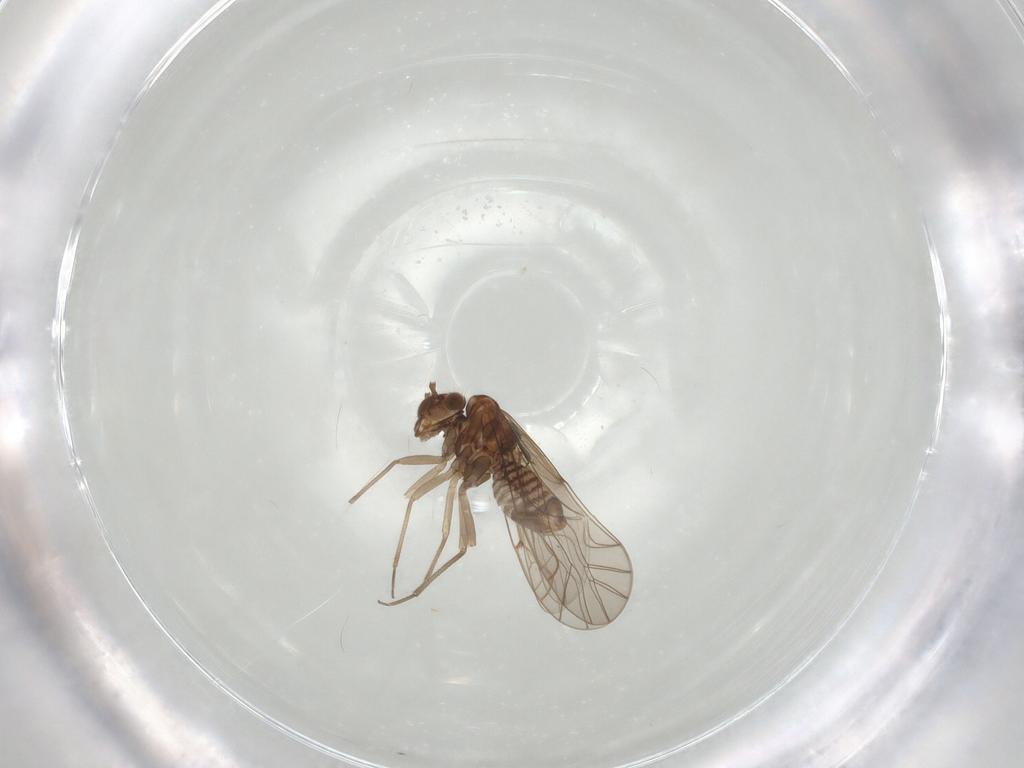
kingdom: Animalia
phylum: Arthropoda
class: Insecta
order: Psocodea
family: Lachesillidae
